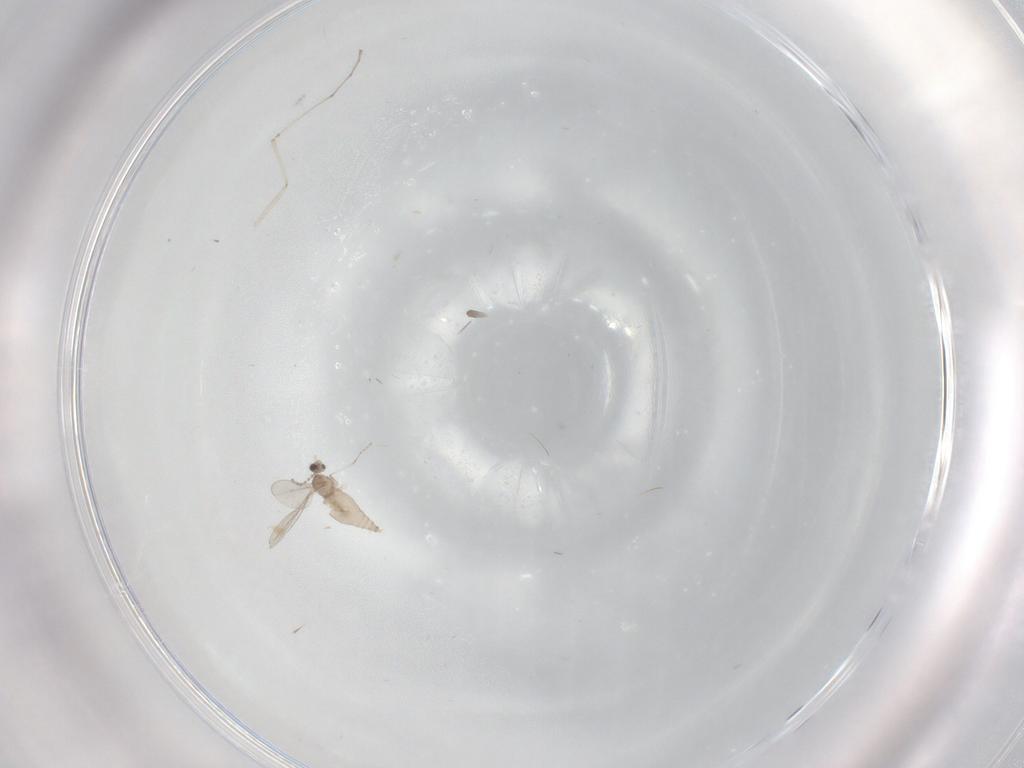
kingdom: Animalia
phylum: Arthropoda
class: Insecta
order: Diptera
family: Cecidomyiidae
